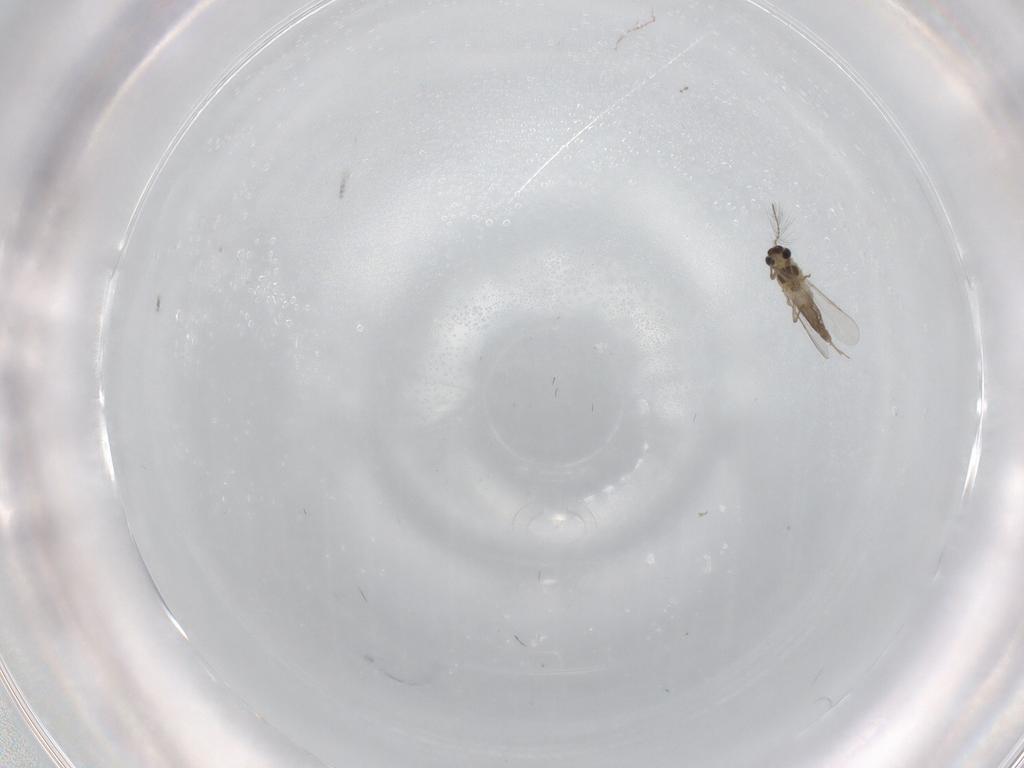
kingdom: Animalia
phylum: Arthropoda
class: Insecta
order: Diptera
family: Chironomidae
